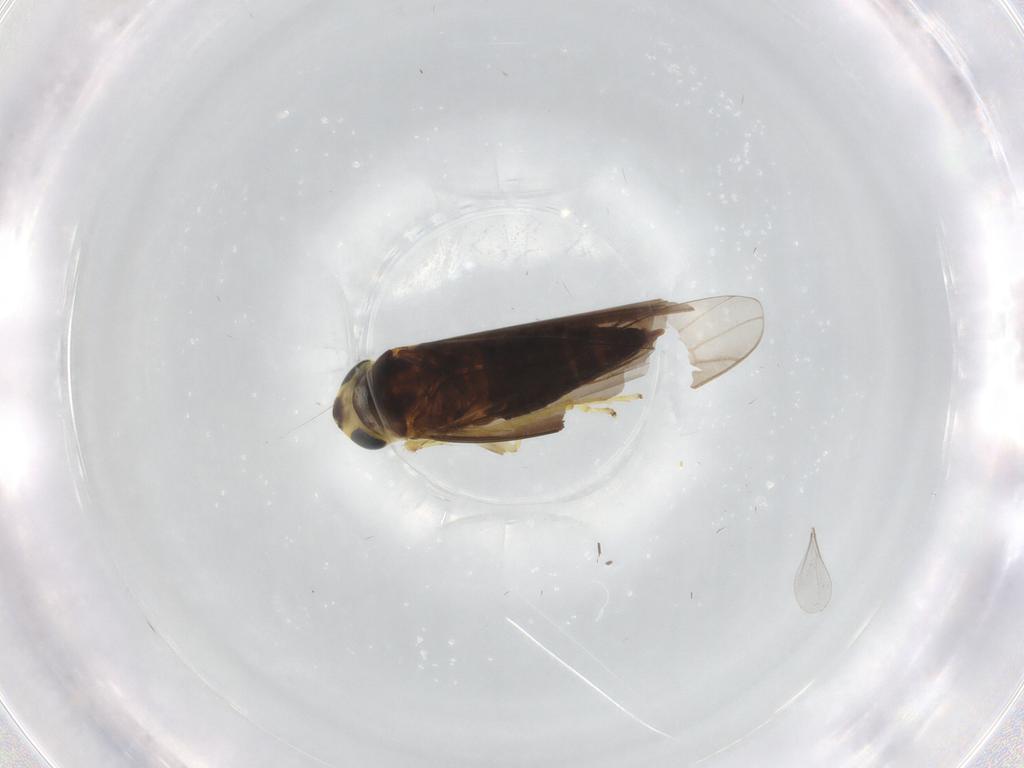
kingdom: Animalia
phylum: Arthropoda
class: Insecta
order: Hemiptera
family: Cicadellidae
